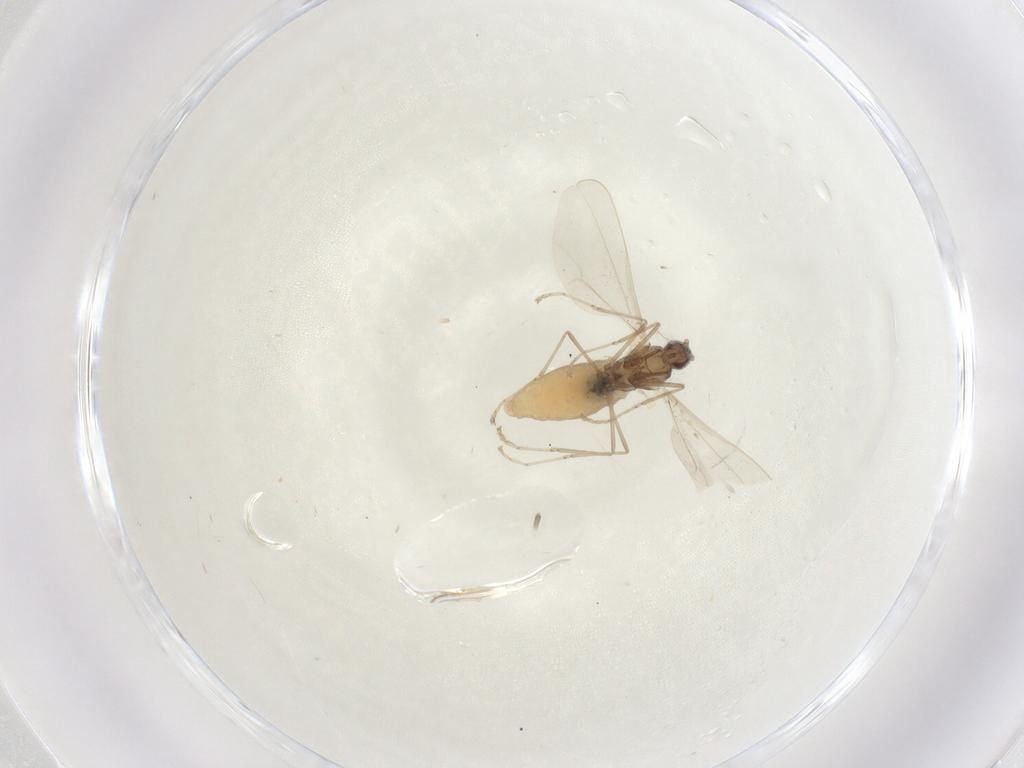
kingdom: Animalia
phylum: Arthropoda
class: Insecta
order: Diptera
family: Cecidomyiidae
